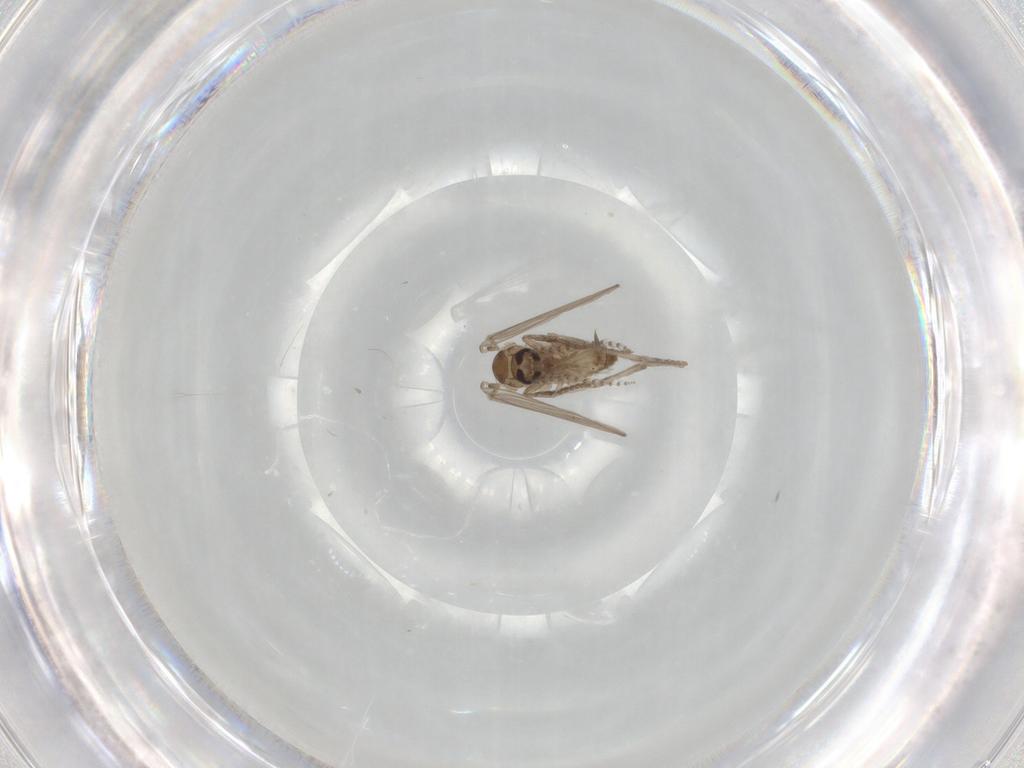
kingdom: Animalia
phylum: Arthropoda
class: Insecta
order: Diptera
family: Psychodidae
